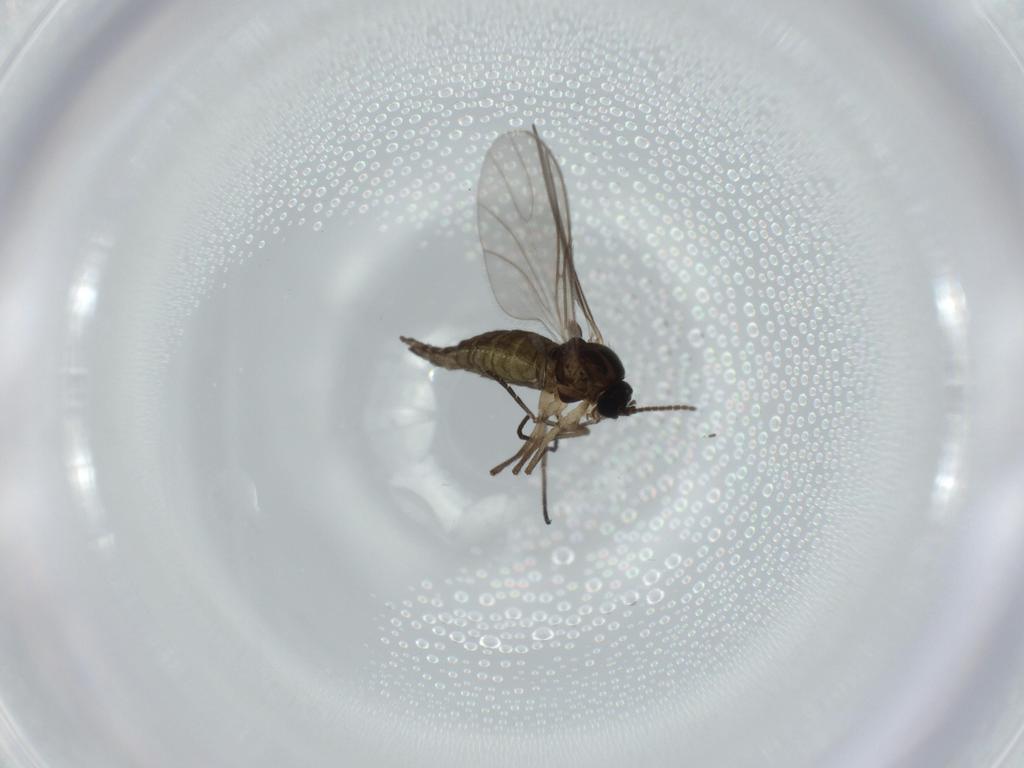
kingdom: Animalia
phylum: Arthropoda
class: Insecta
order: Diptera
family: Sciaridae
